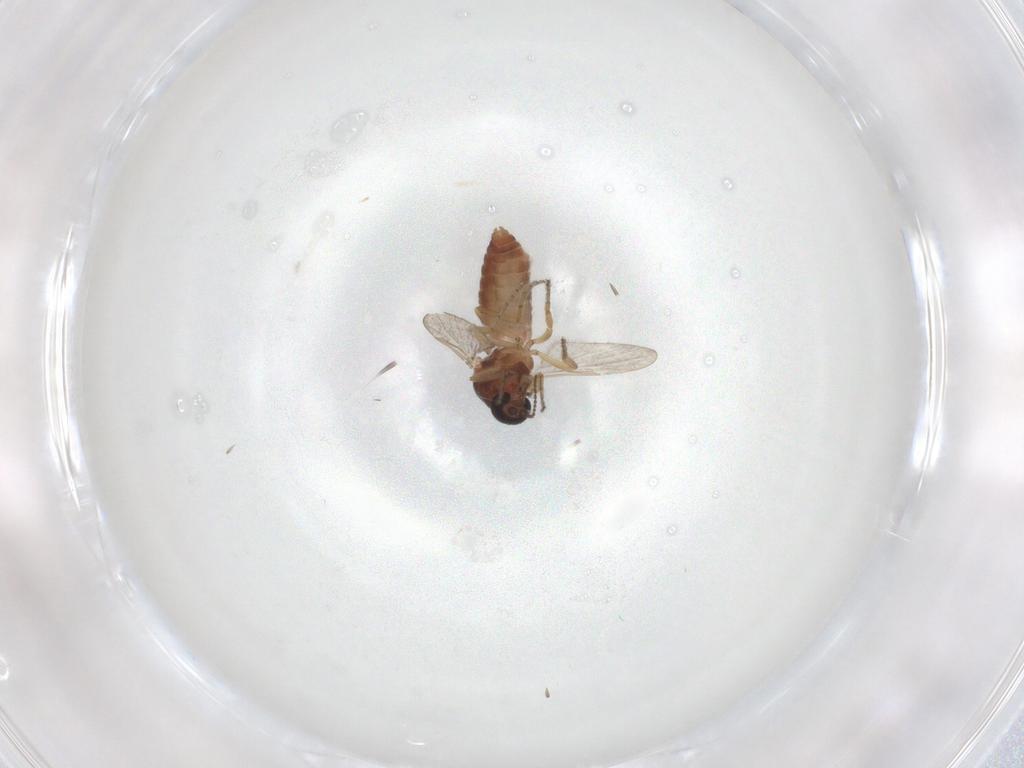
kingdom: Animalia
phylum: Arthropoda
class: Insecta
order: Diptera
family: Ceratopogonidae
